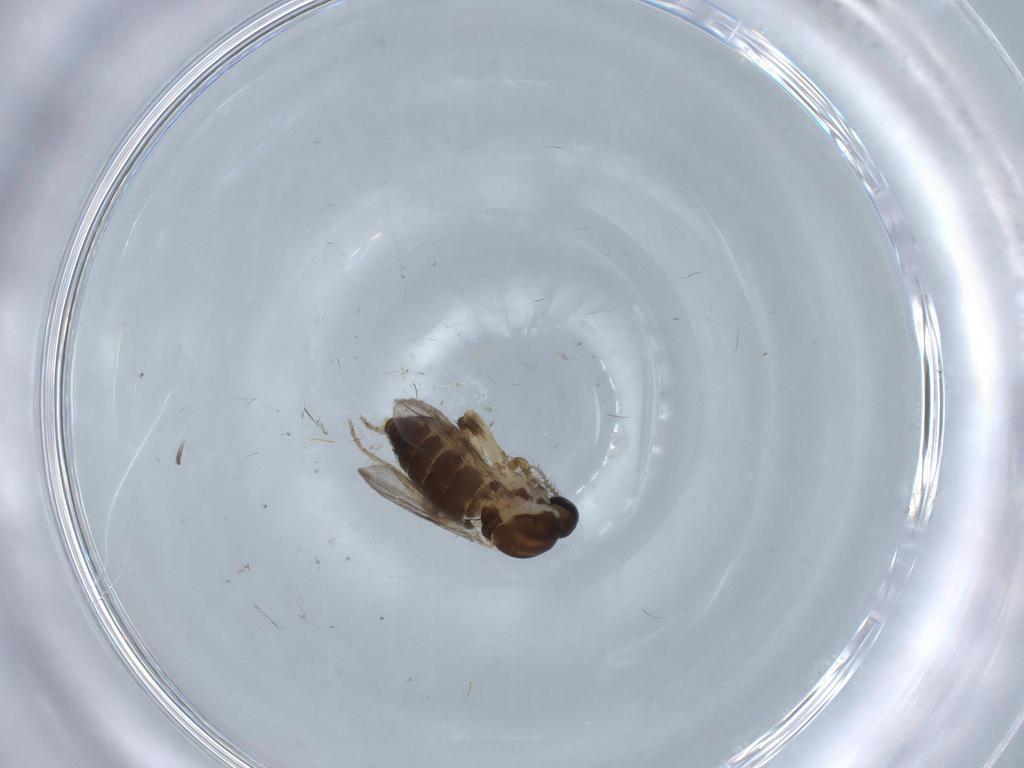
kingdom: Animalia
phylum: Arthropoda
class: Insecta
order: Diptera
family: Ceratopogonidae
